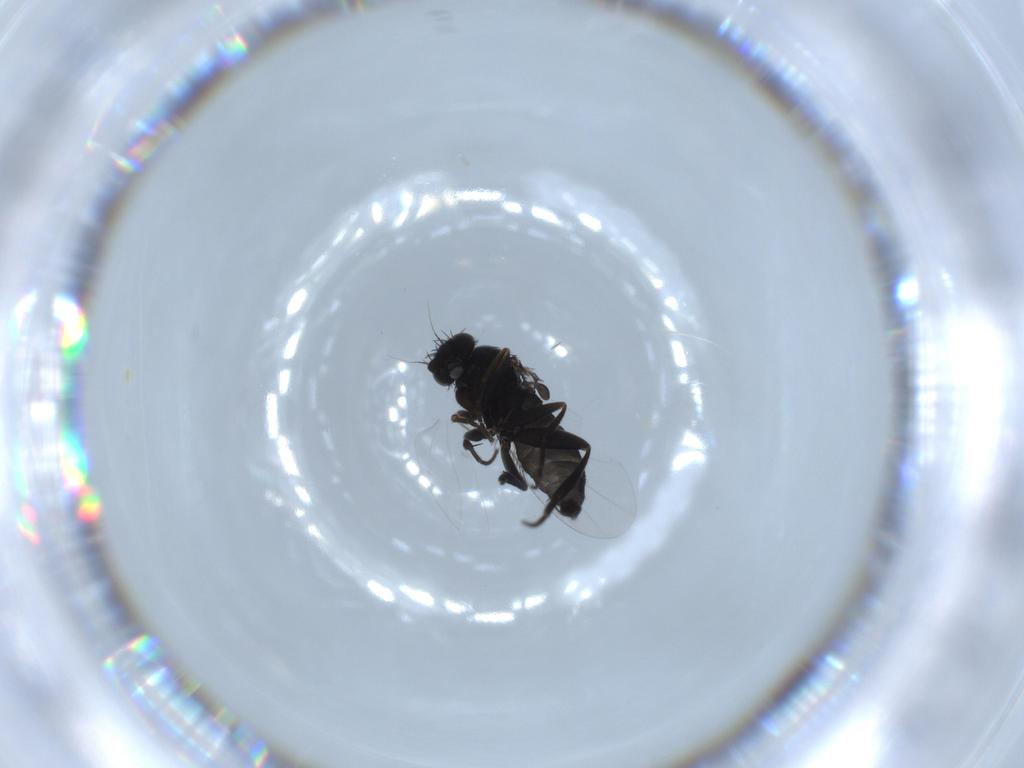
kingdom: Animalia
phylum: Arthropoda
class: Insecta
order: Diptera
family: Phoridae
